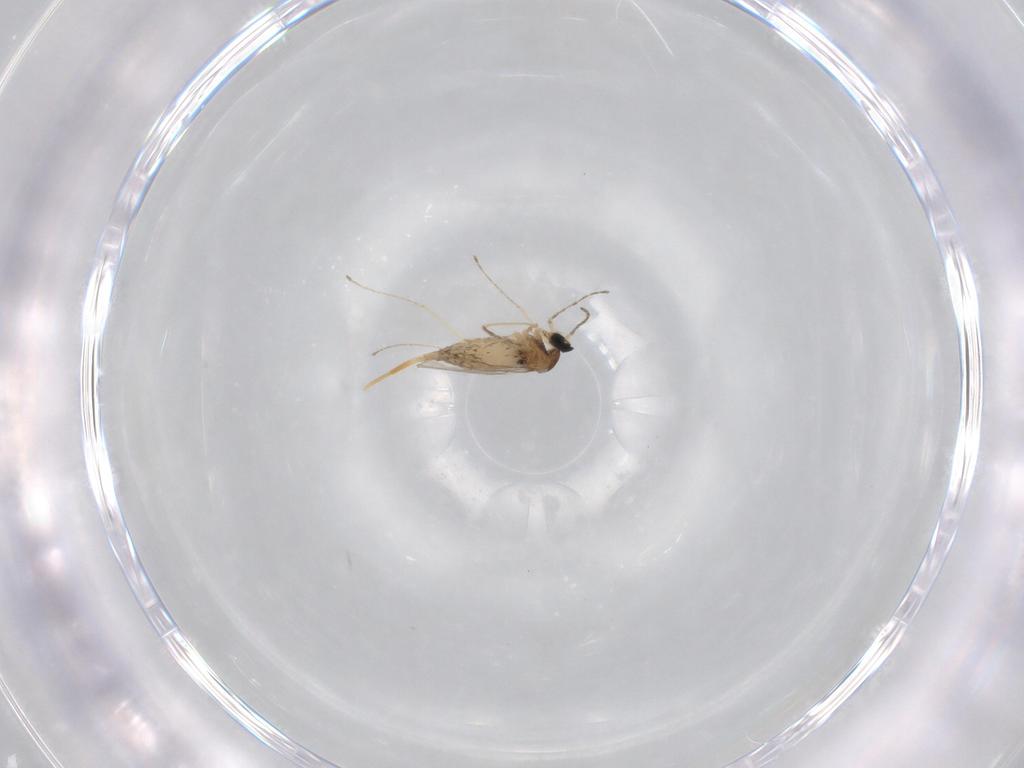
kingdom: Animalia
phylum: Arthropoda
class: Insecta
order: Diptera
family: Cecidomyiidae
